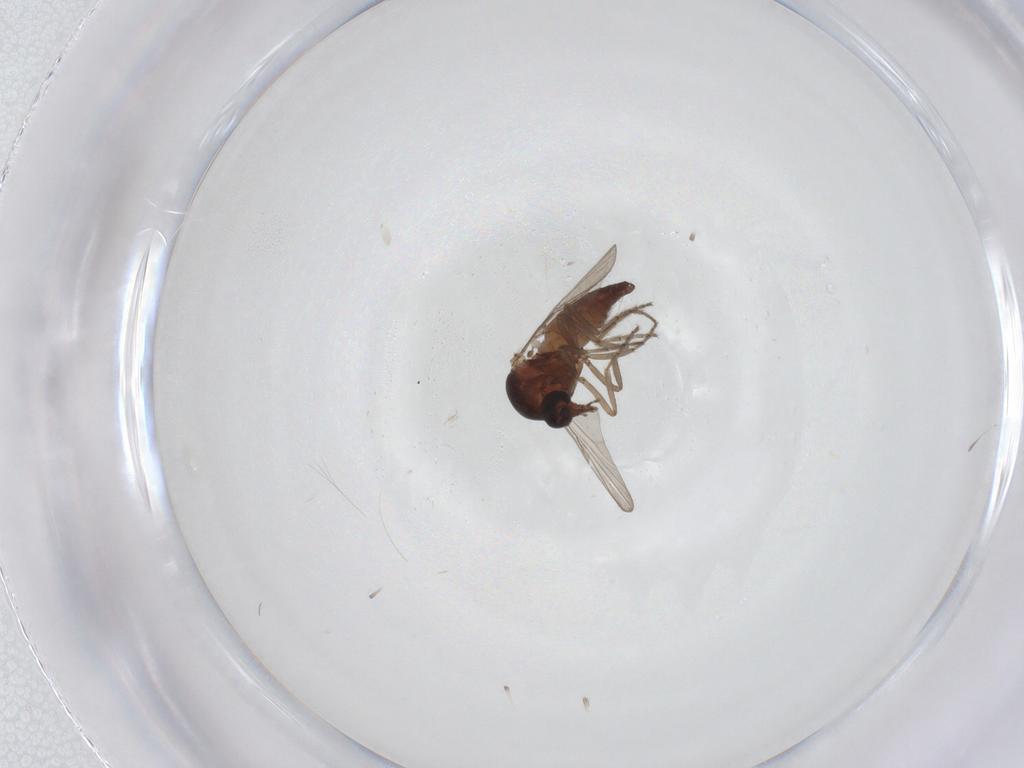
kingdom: Animalia
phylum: Arthropoda
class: Insecta
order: Diptera
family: Ceratopogonidae
